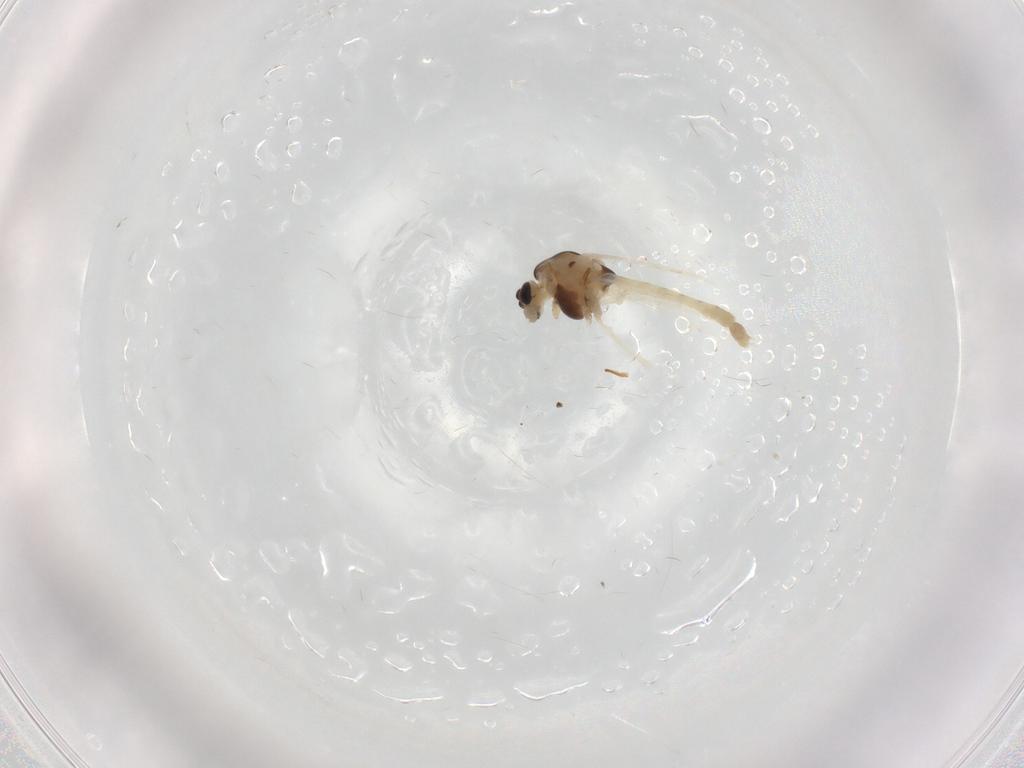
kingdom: Animalia
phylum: Arthropoda
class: Insecta
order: Diptera
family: Chironomidae
